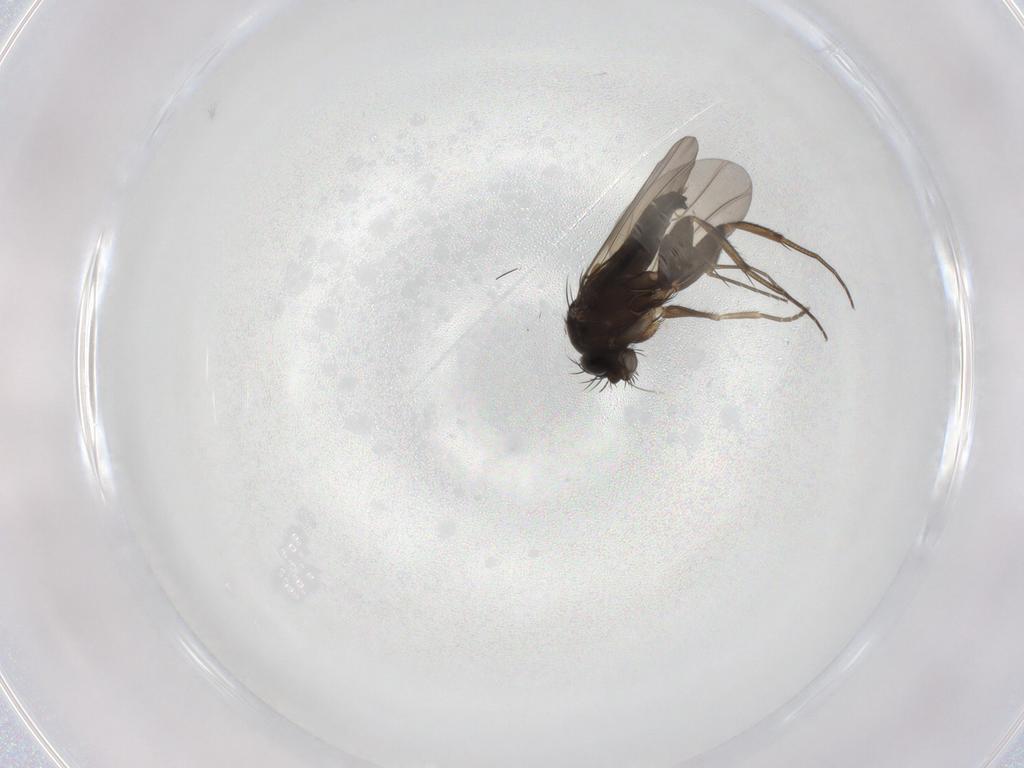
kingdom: Animalia
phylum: Arthropoda
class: Insecta
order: Diptera
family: Phoridae
